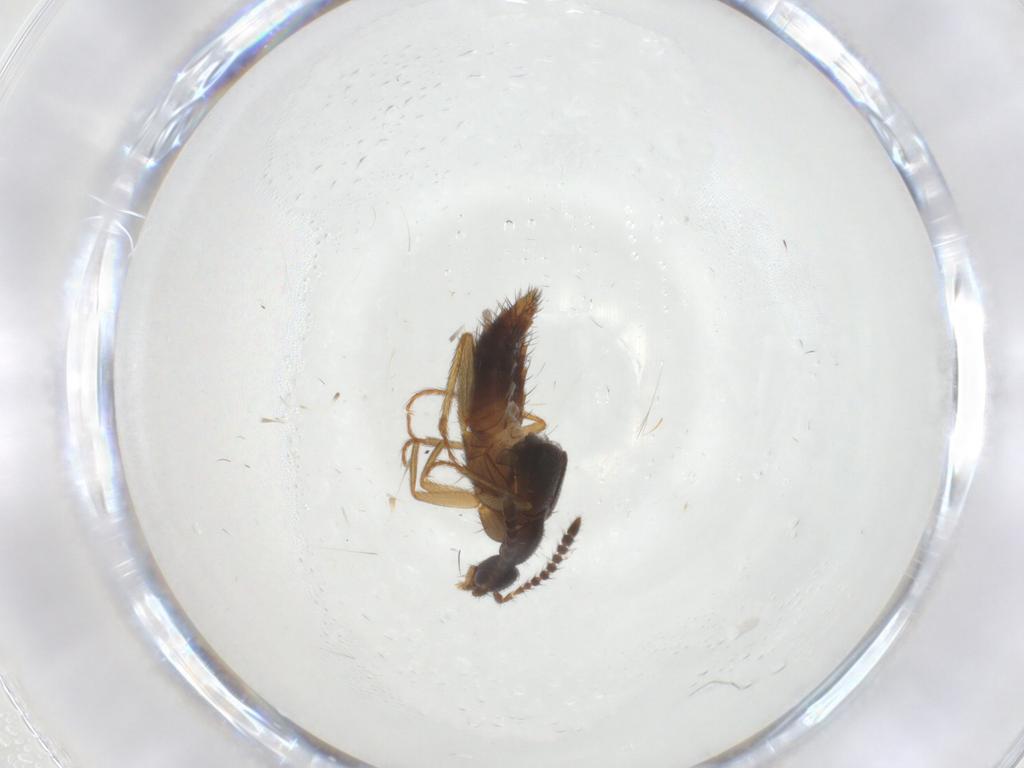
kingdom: Animalia
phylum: Arthropoda
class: Insecta
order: Coleoptera
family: Staphylinidae
